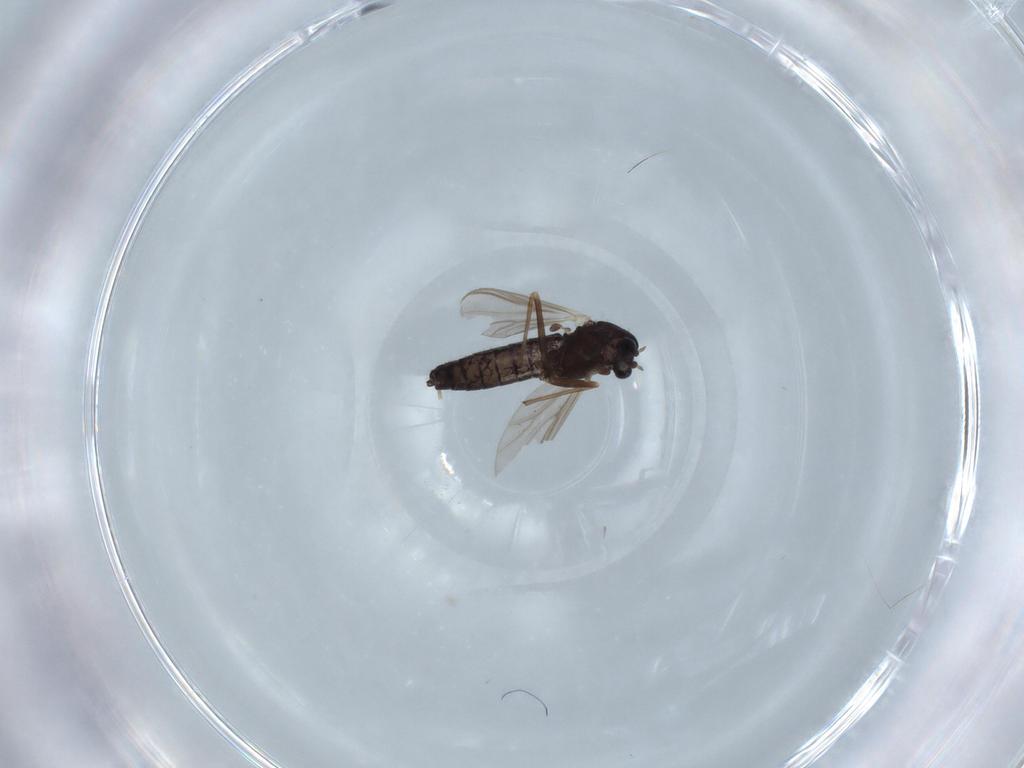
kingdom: Animalia
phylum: Arthropoda
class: Insecta
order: Diptera
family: Chironomidae
